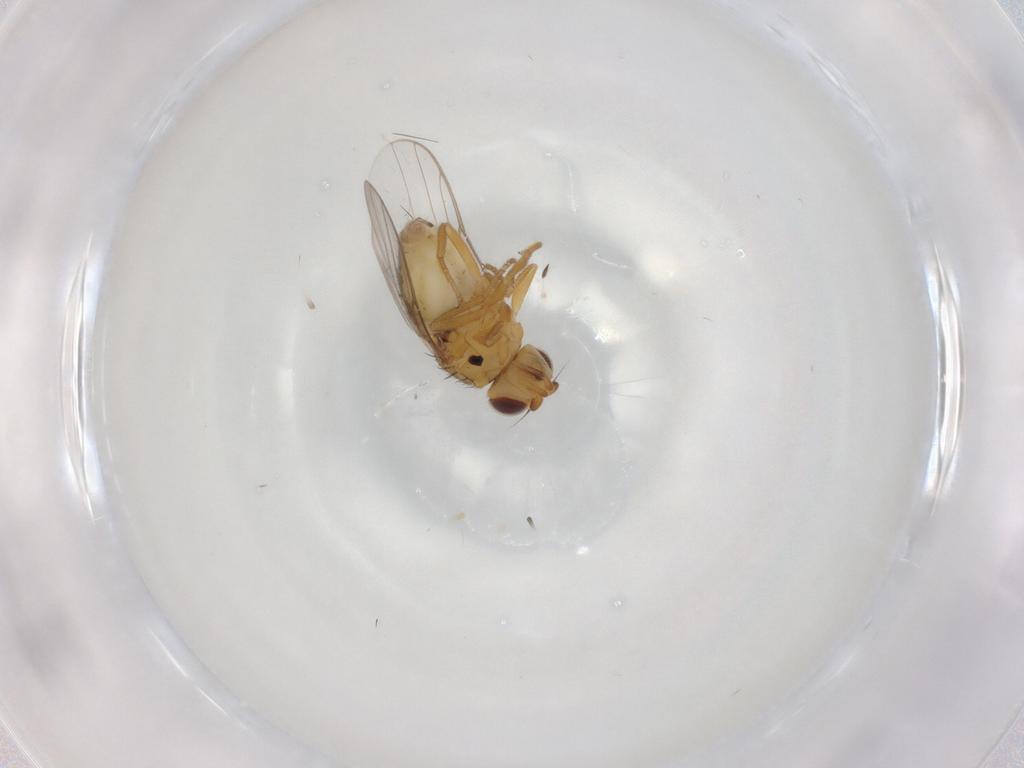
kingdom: Animalia
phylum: Arthropoda
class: Insecta
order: Diptera
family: Chloropidae
